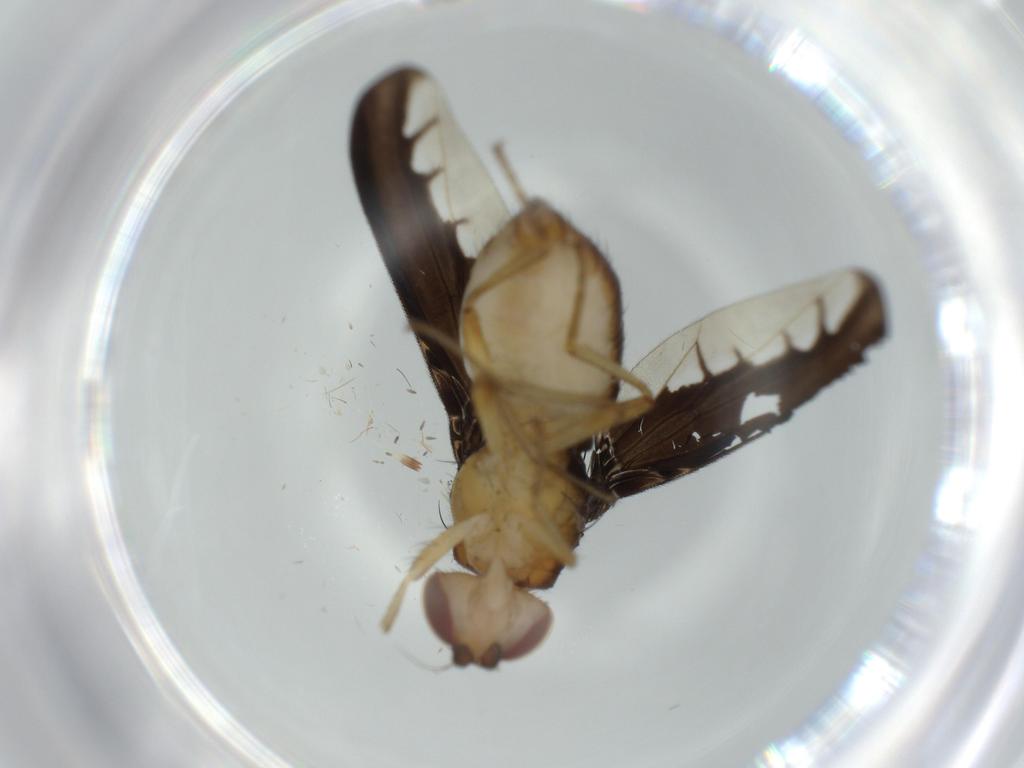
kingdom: Animalia
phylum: Arthropoda
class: Insecta
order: Diptera
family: Ceratopogonidae
